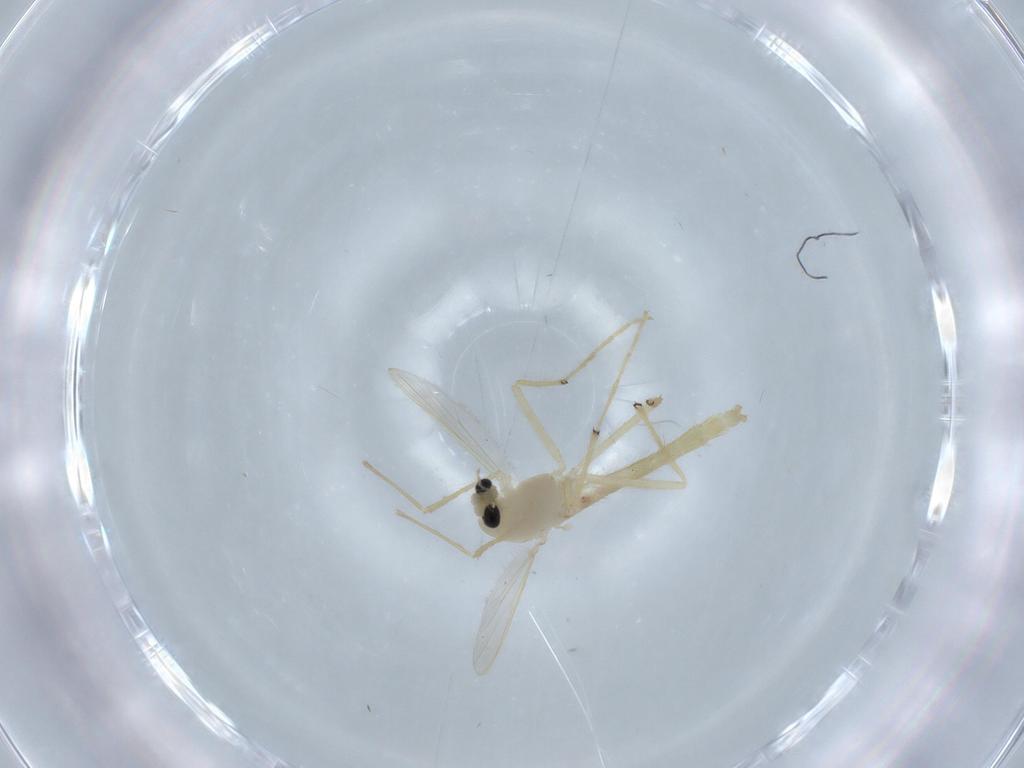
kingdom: Animalia
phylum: Arthropoda
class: Insecta
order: Diptera
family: Chironomidae
